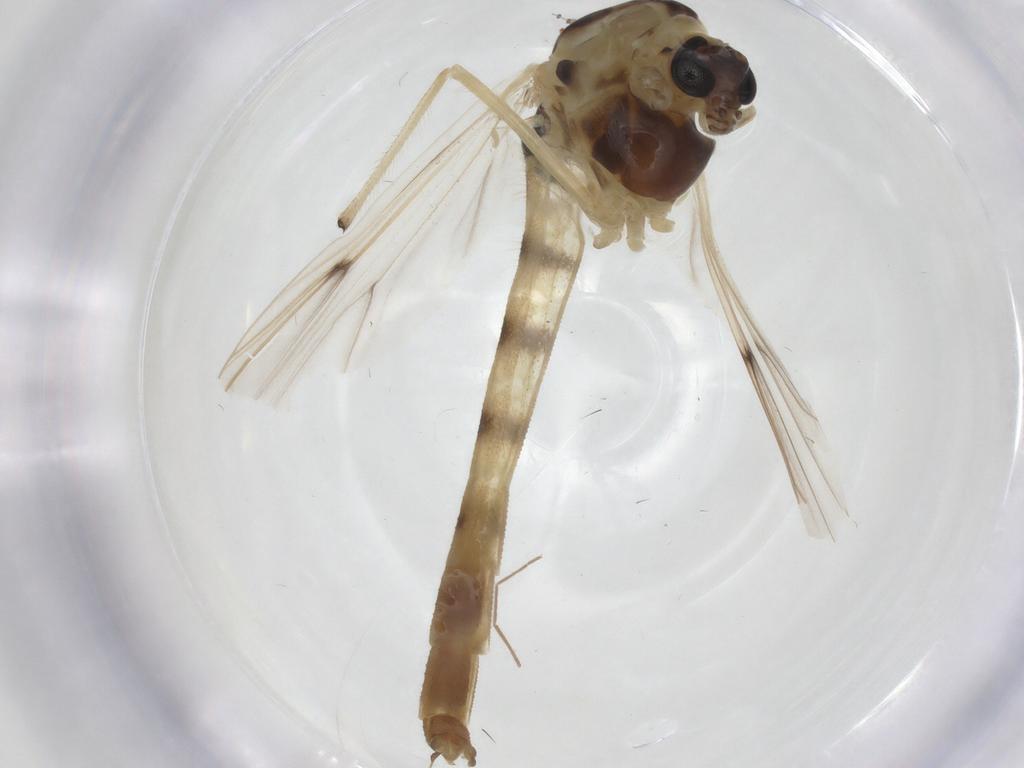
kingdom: Animalia
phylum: Arthropoda
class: Insecta
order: Diptera
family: Chironomidae
